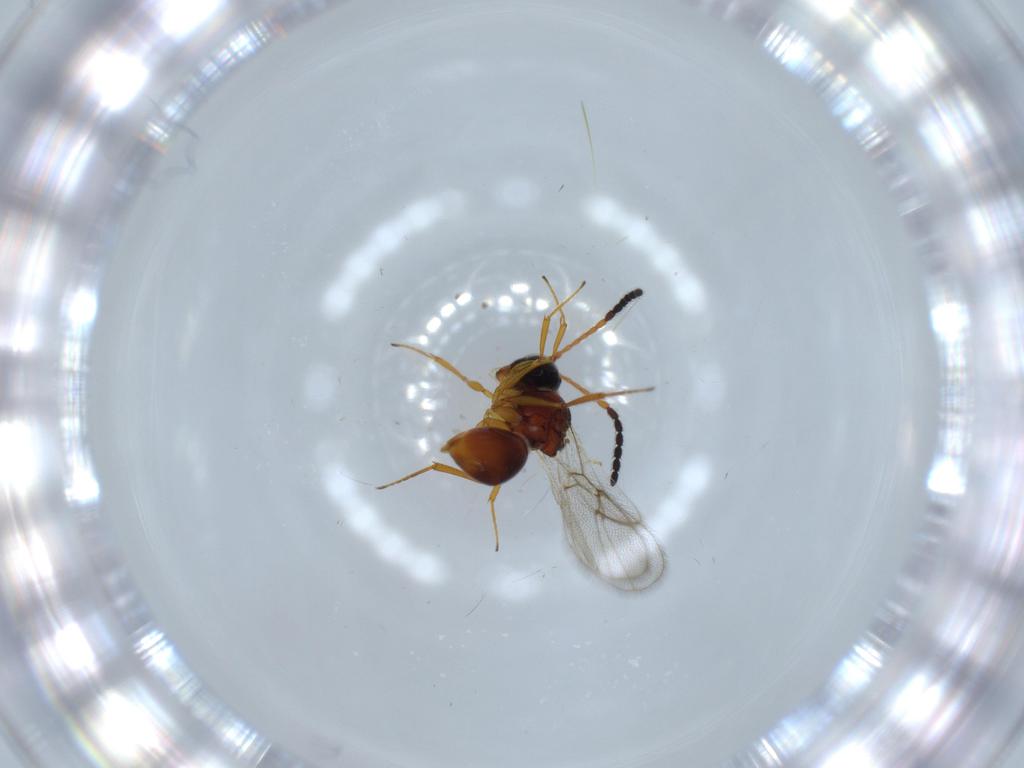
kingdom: Animalia
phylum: Arthropoda
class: Insecta
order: Hymenoptera
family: Figitidae
